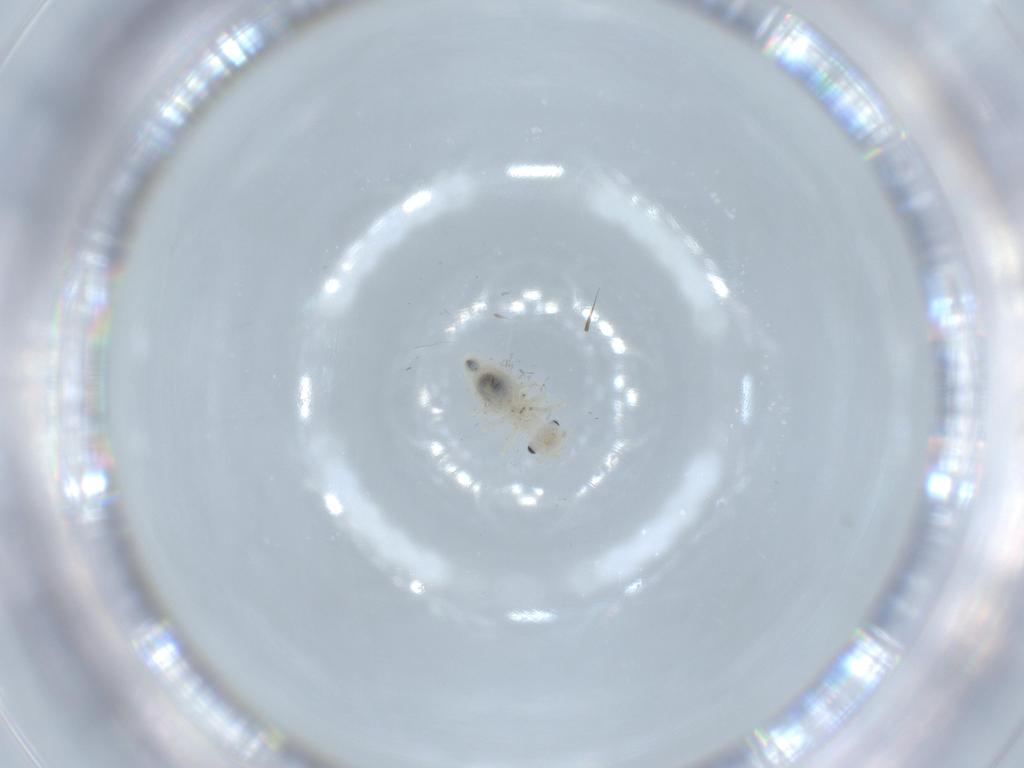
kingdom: Animalia
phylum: Arthropoda
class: Insecta
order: Psocodea
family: Caeciliusidae
